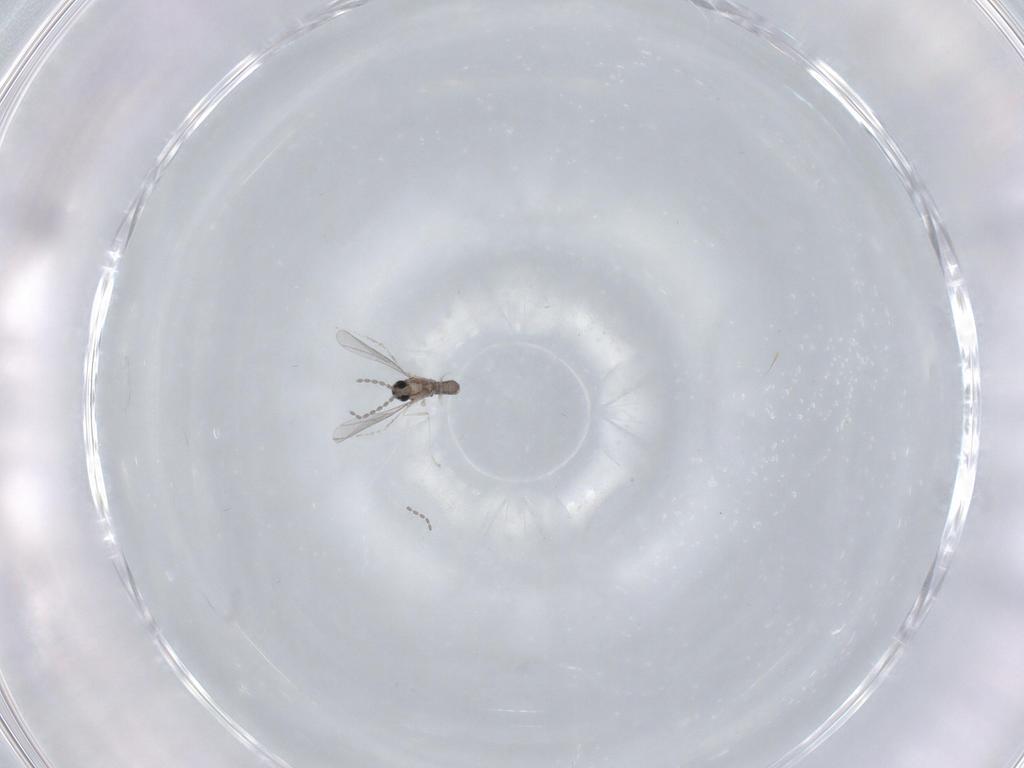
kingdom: Animalia
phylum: Arthropoda
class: Insecta
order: Diptera
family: Cecidomyiidae
